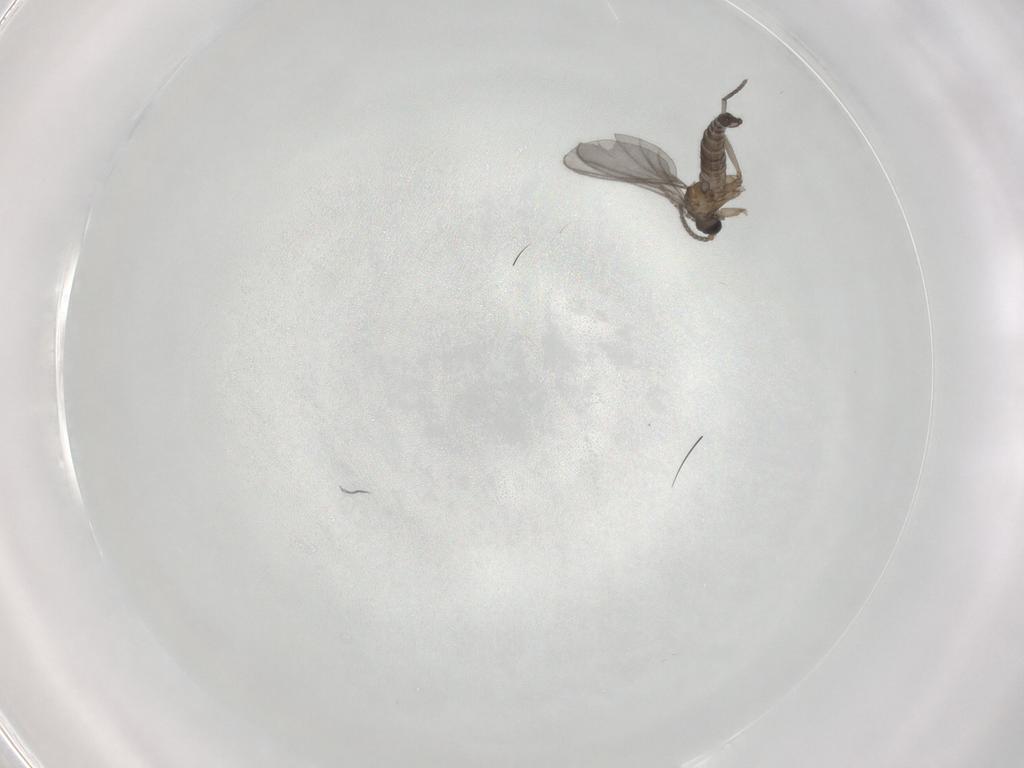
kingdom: Animalia
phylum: Arthropoda
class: Insecta
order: Diptera
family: Sciaridae
